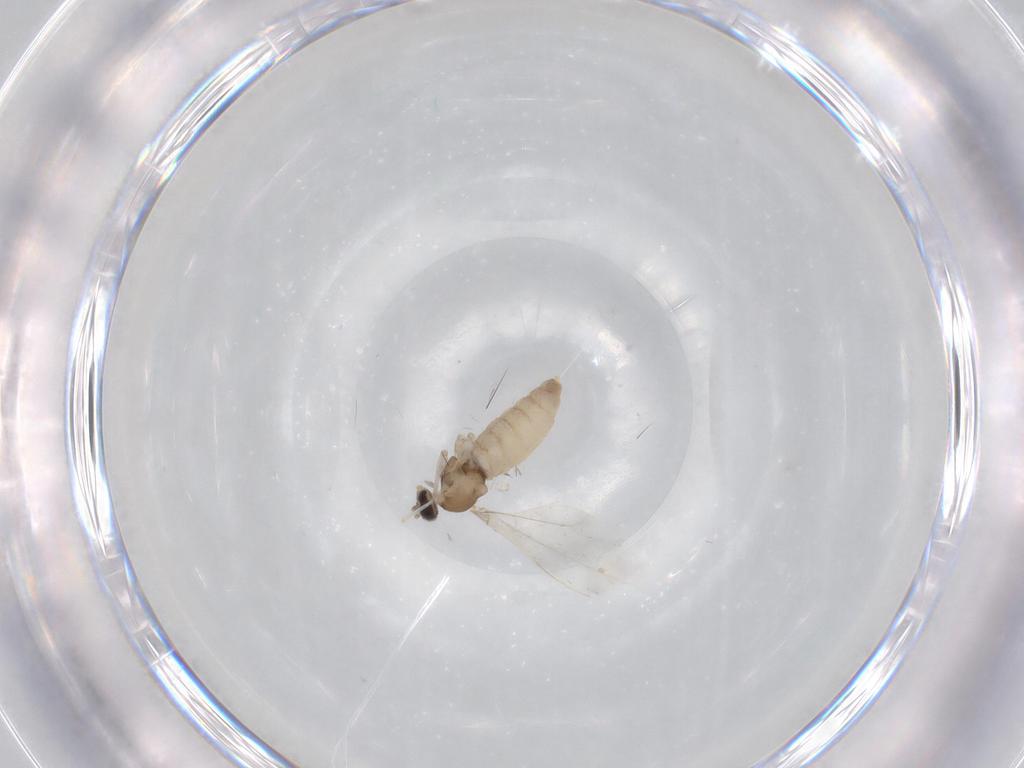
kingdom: Animalia
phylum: Arthropoda
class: Insecta
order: Diptera
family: Cecidomyiidae
